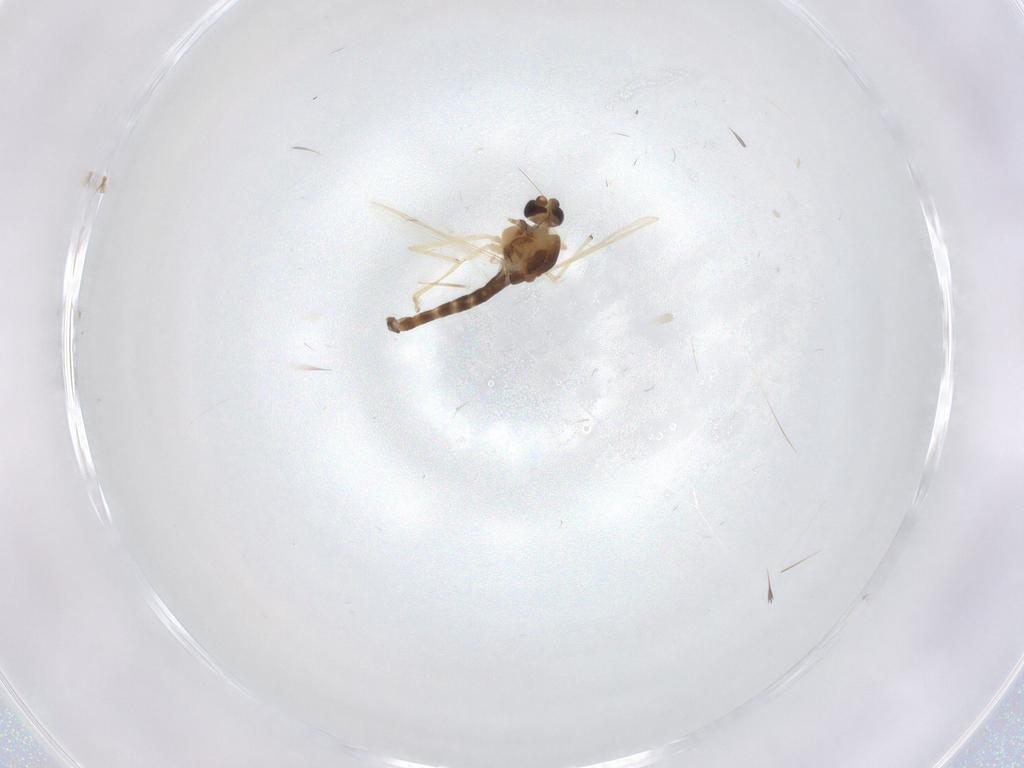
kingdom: Animalia
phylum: Arthropoda
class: Insecta
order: Diptera
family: Chironomidae
